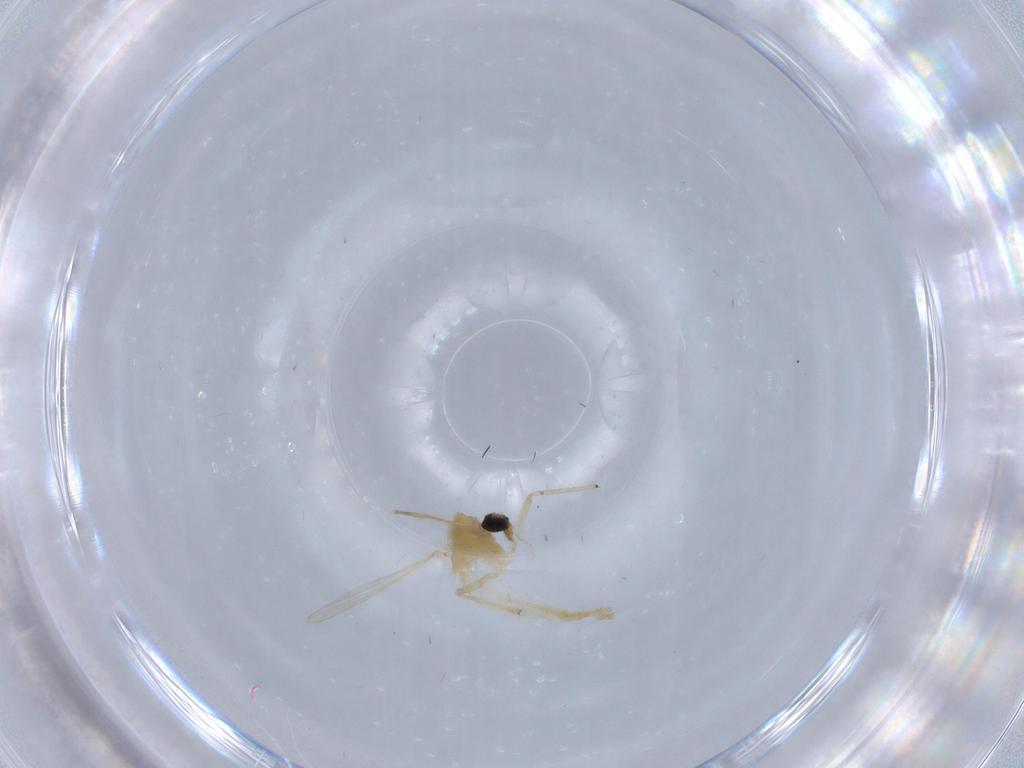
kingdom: Animalia
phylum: Arthropoda
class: Insecta
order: Diptera
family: Chironomidae
